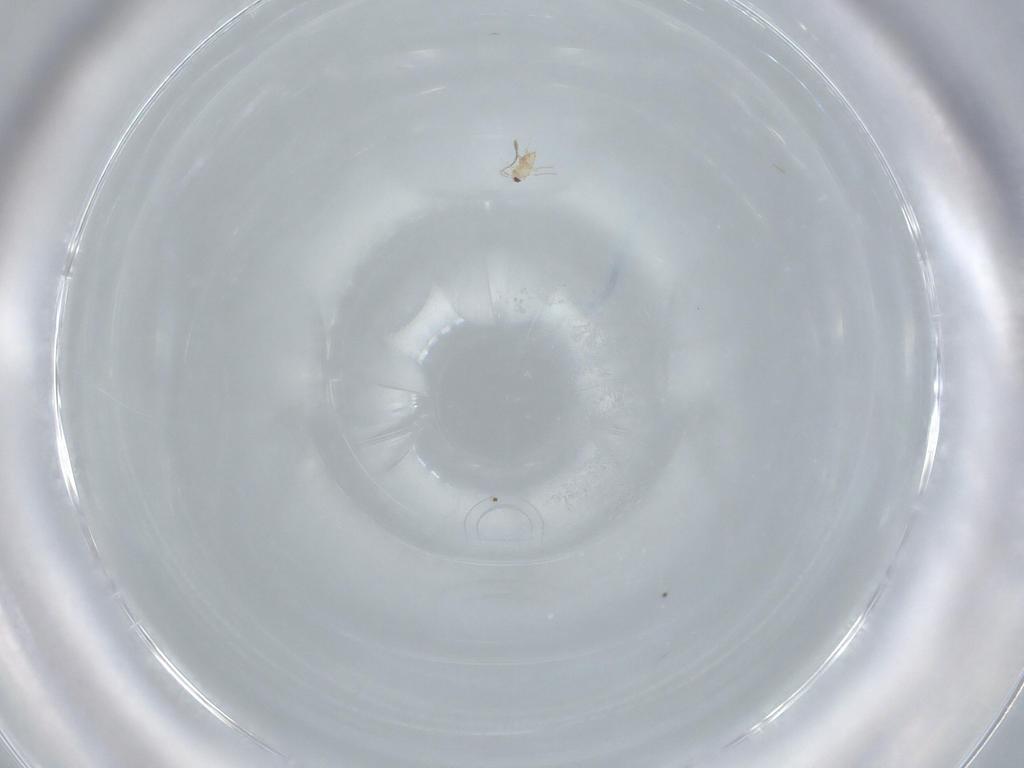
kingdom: Animalia
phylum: Arthropoda
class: Insecta
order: Hymenoptera
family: Mymaridae
